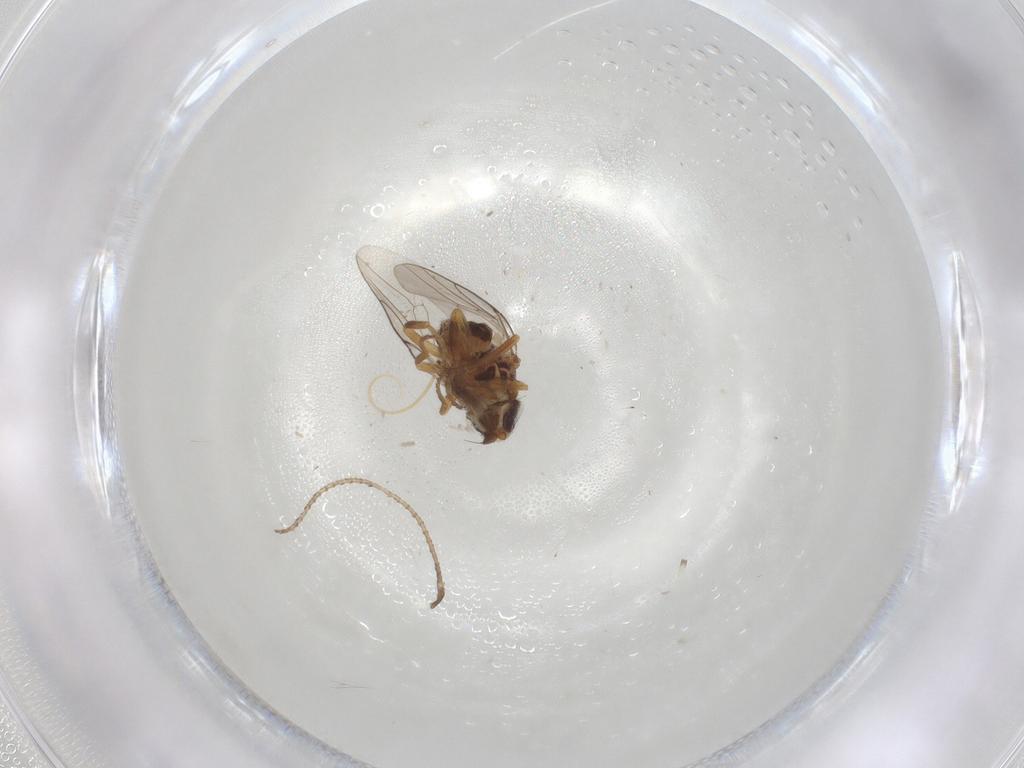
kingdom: Animalia
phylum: Arthropoda
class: Insecta
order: Diptera
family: Chloropidae
